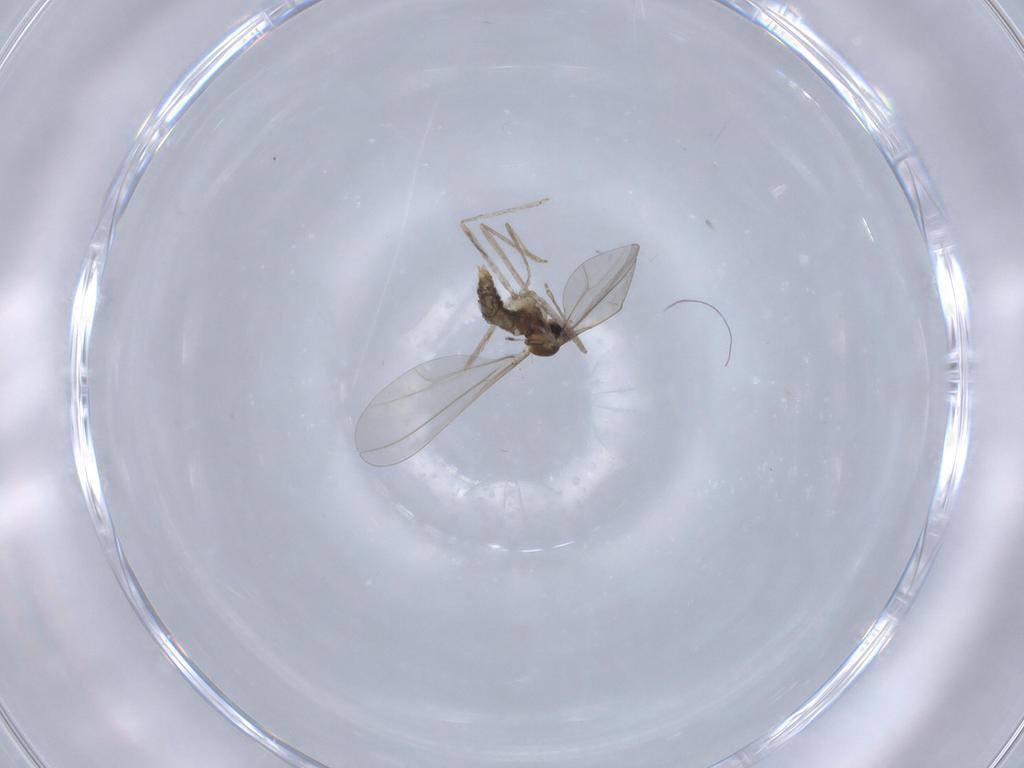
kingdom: Animalia
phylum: Arthropoda
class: Insecta
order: Diptera
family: Cecidomyiidae
